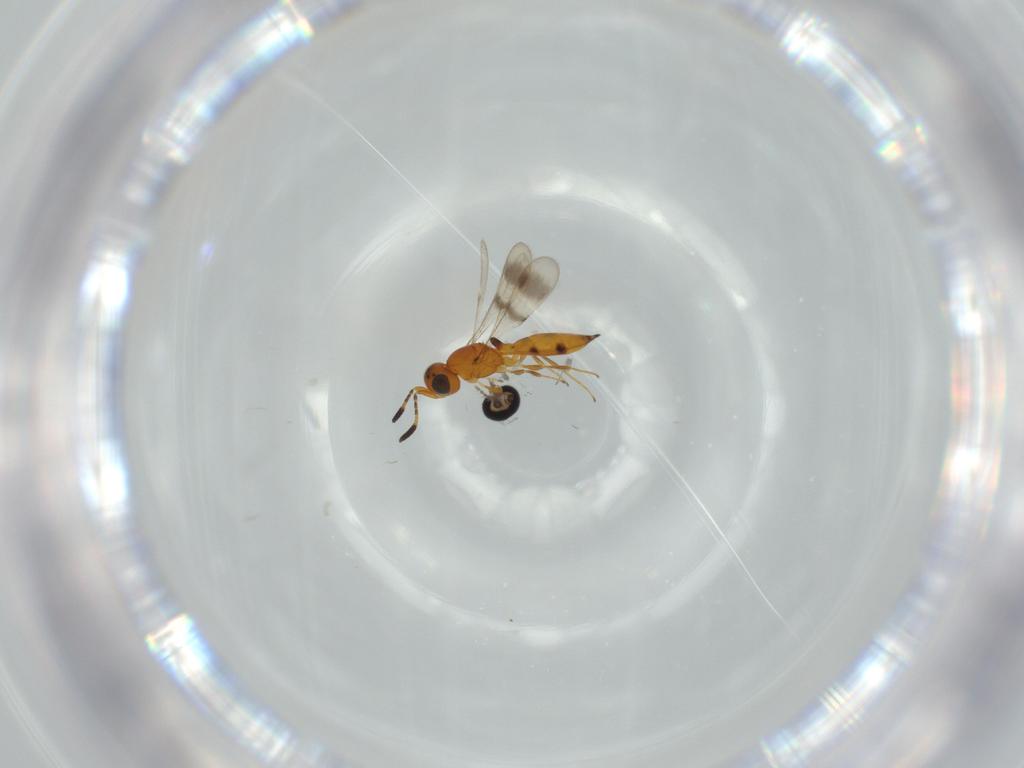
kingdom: Animalia
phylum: Arthropoda
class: Insecta
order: Hymenoptera
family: Scelionidae
